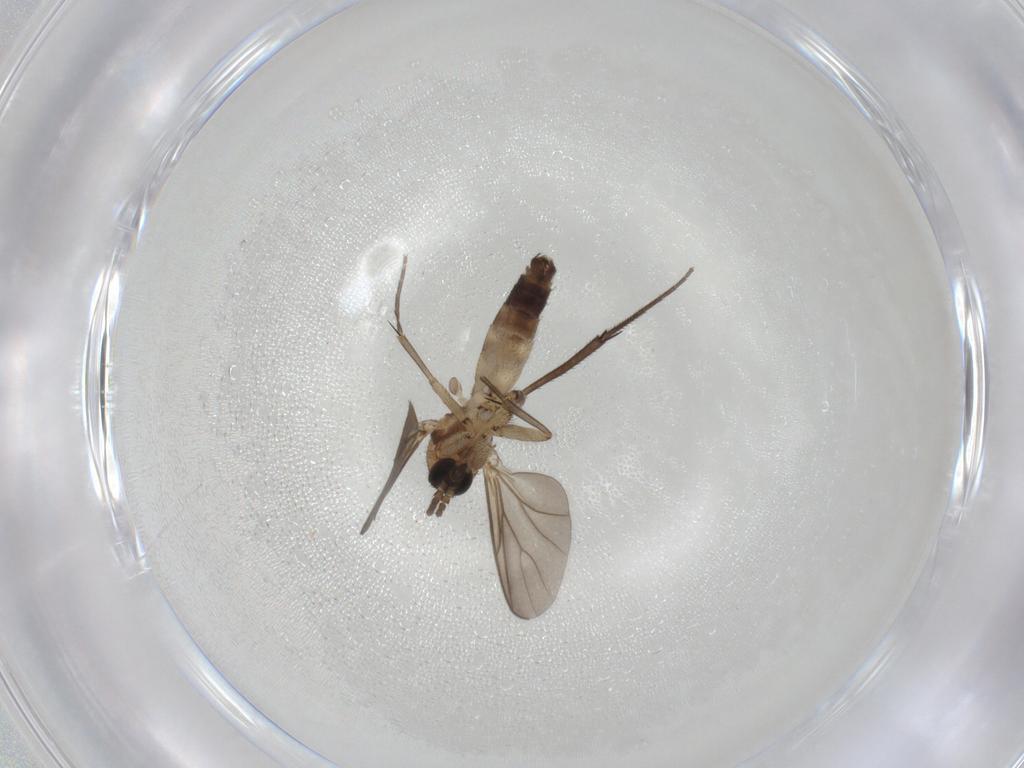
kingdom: Animalia
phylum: Arthropoda
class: Insecta
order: Diptera
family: Mycetophilidae
